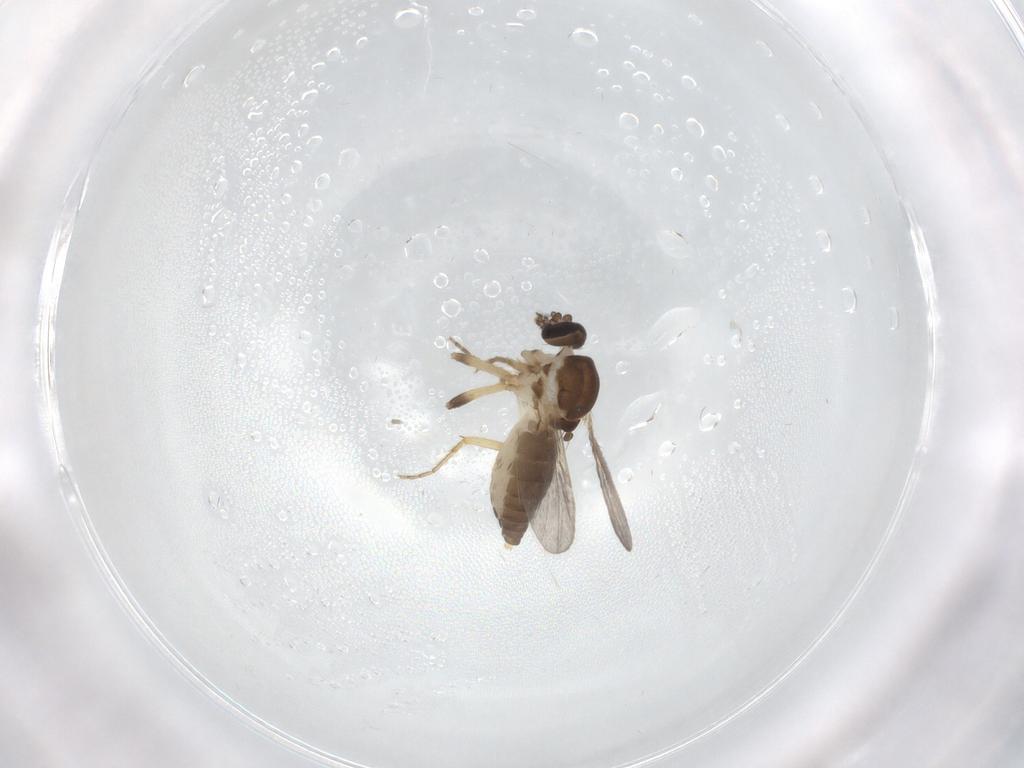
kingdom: Animalia
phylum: Arthropoda
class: Insecta
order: Diptera
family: Ceratopogonidae
